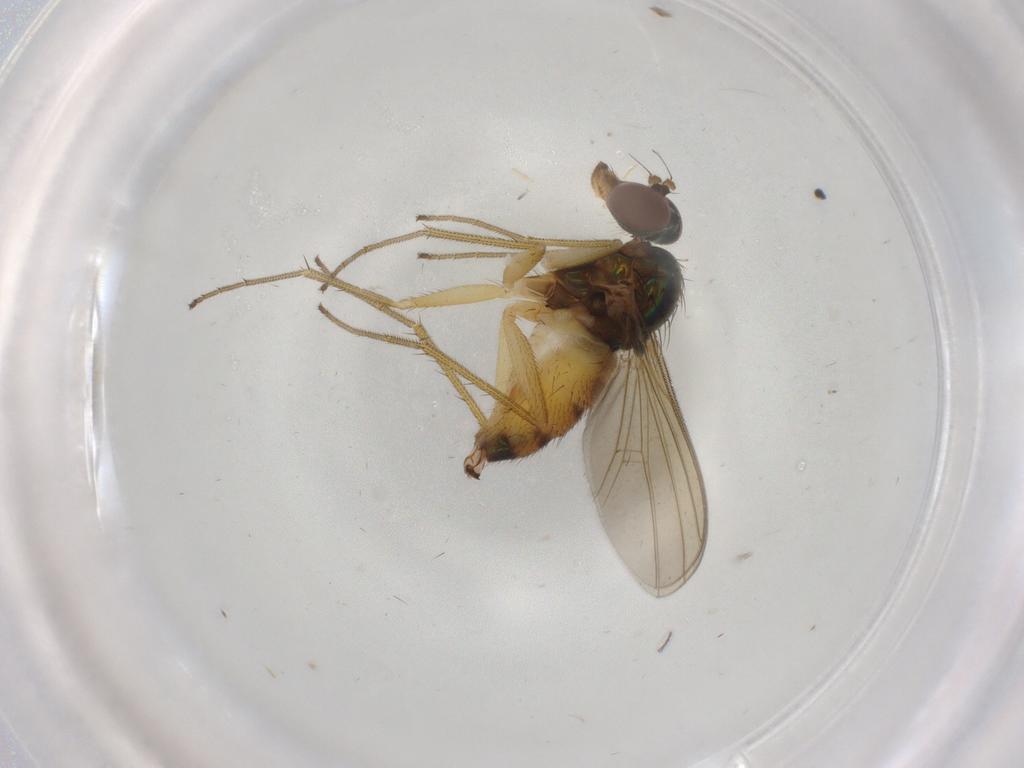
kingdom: Animalia
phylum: Arthropoda
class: Insecta
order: Diptera
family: Dolichopodidae
